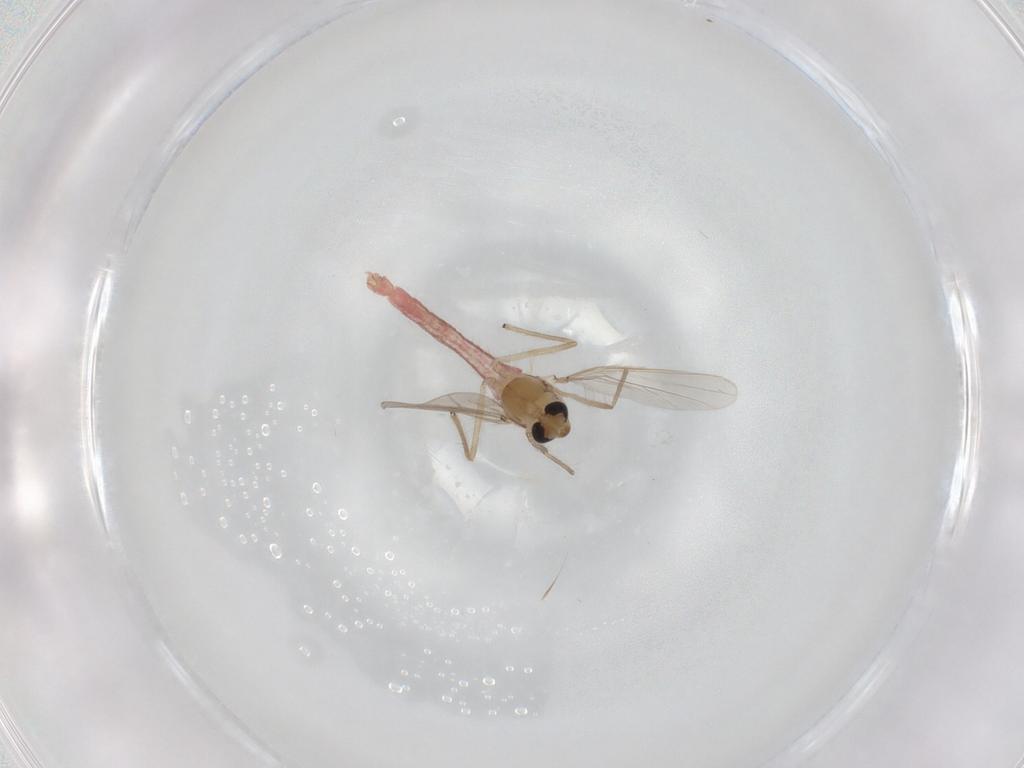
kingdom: Animalia
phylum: Arthropoda
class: Insecta
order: Diptera
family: Chironomidae
